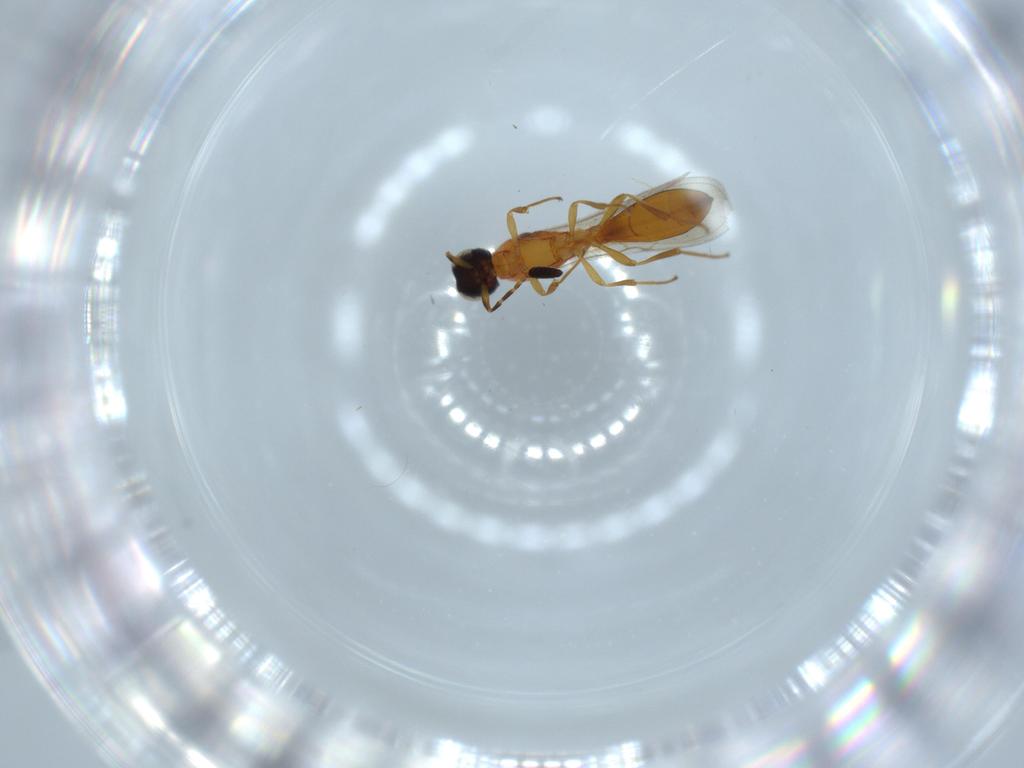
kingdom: Animalia
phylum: Arthropoda
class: Insecta
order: Hymenoptera
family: Scelionidae
